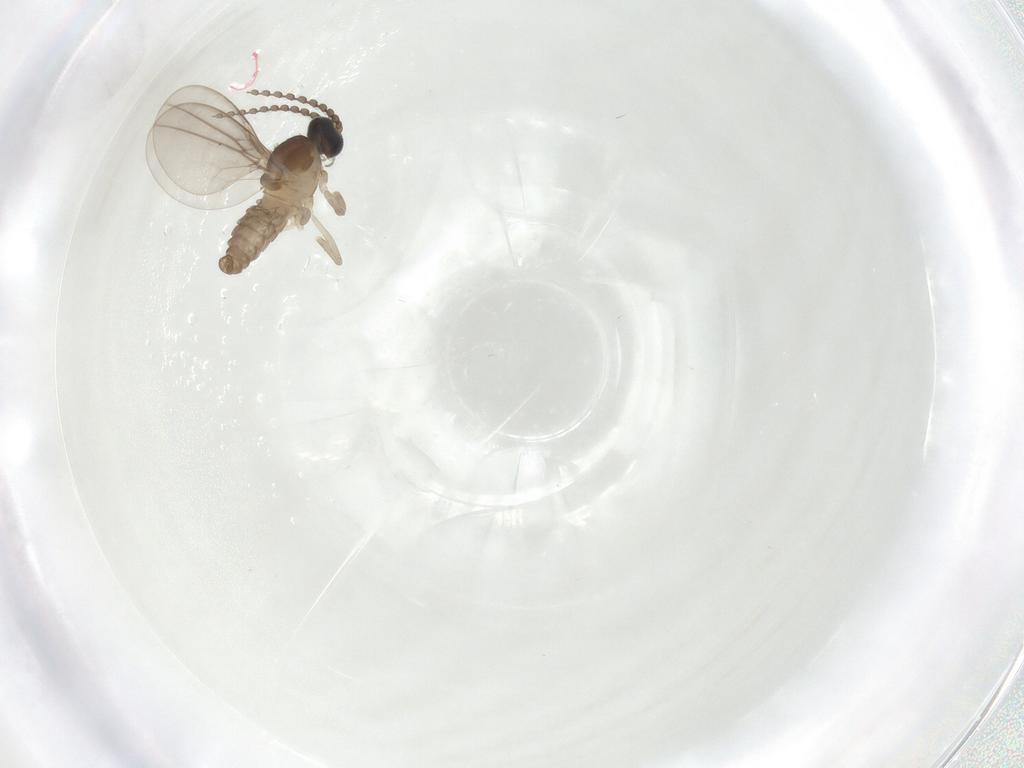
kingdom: Animalia
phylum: Arthropoda
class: Insecta
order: Diptera
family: Cecidomyiidae
